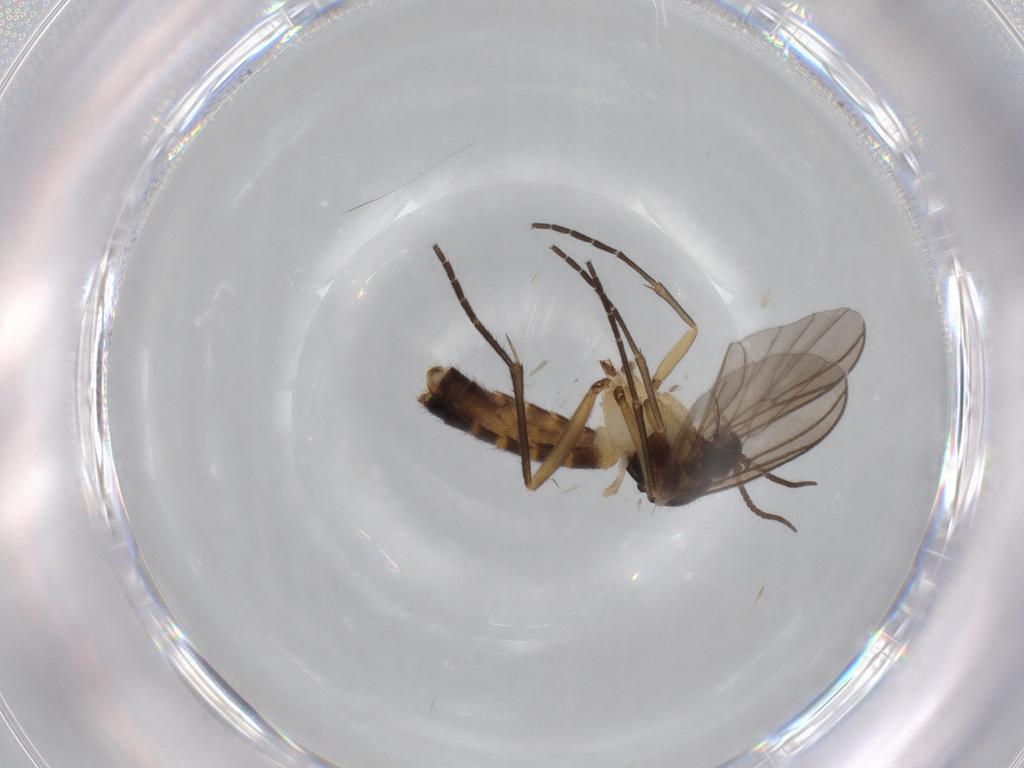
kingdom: Animalia
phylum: Arthropoda
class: Insecta
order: Diptera
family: Mycetophilidae
